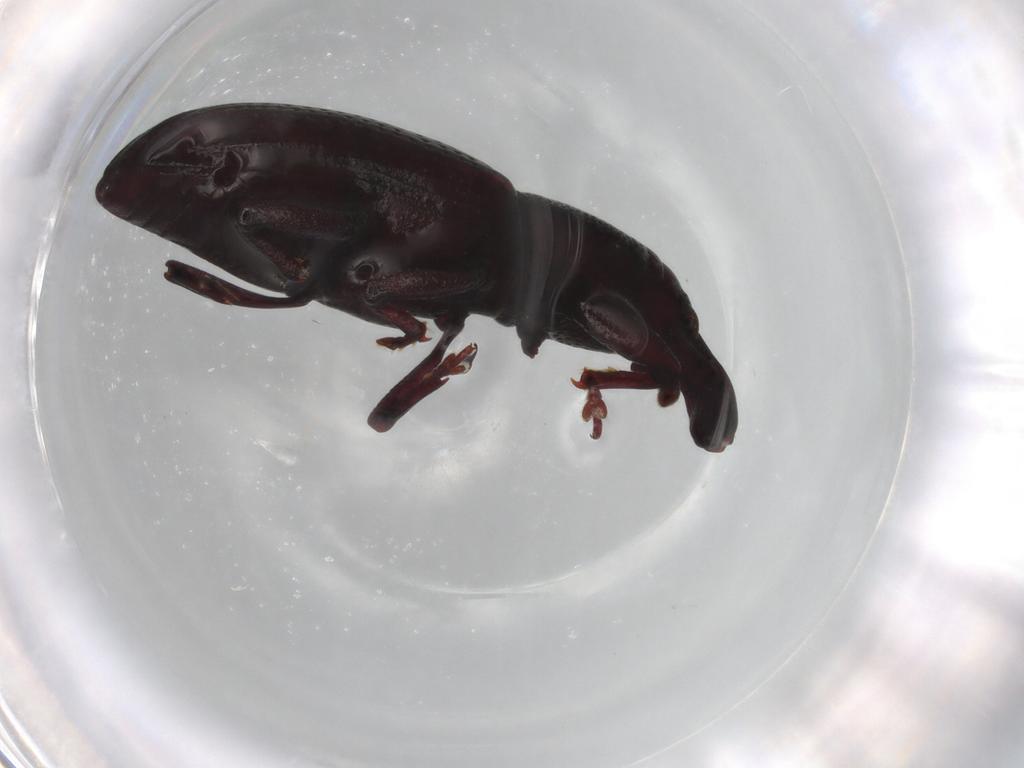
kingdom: Animalia
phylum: Arthropoda
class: Insecta
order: Coleoptera
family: Curculionidae
